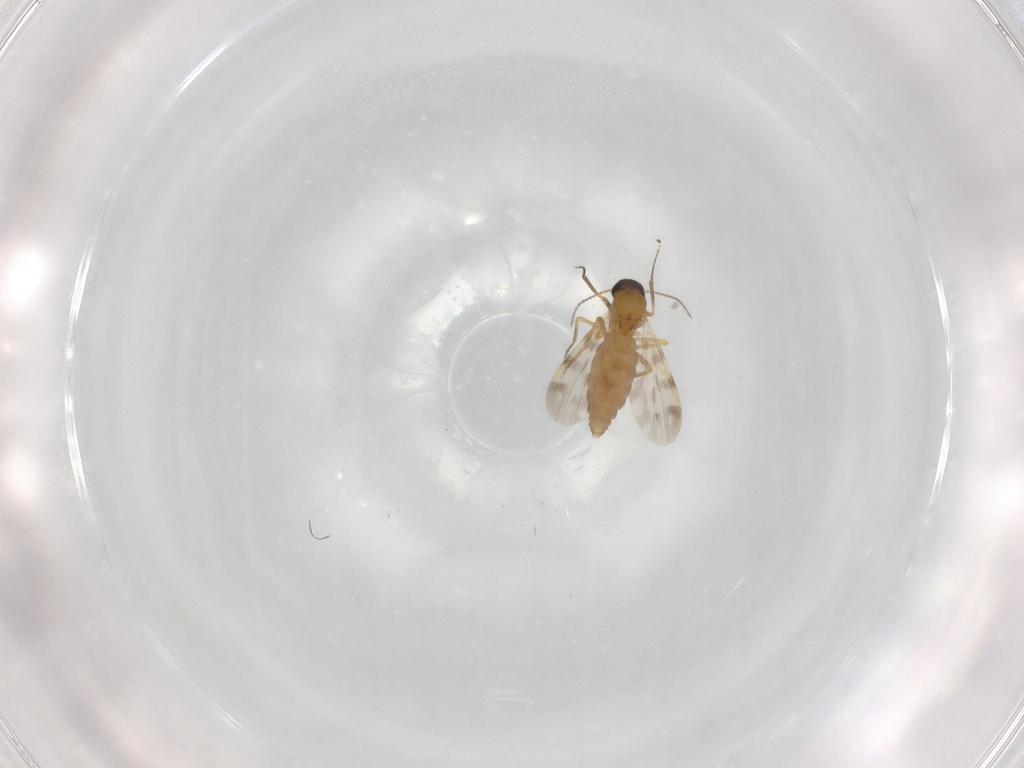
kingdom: Animalia
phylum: Arthropoda
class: Insecta
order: Diptera
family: Ceratopogonidae
